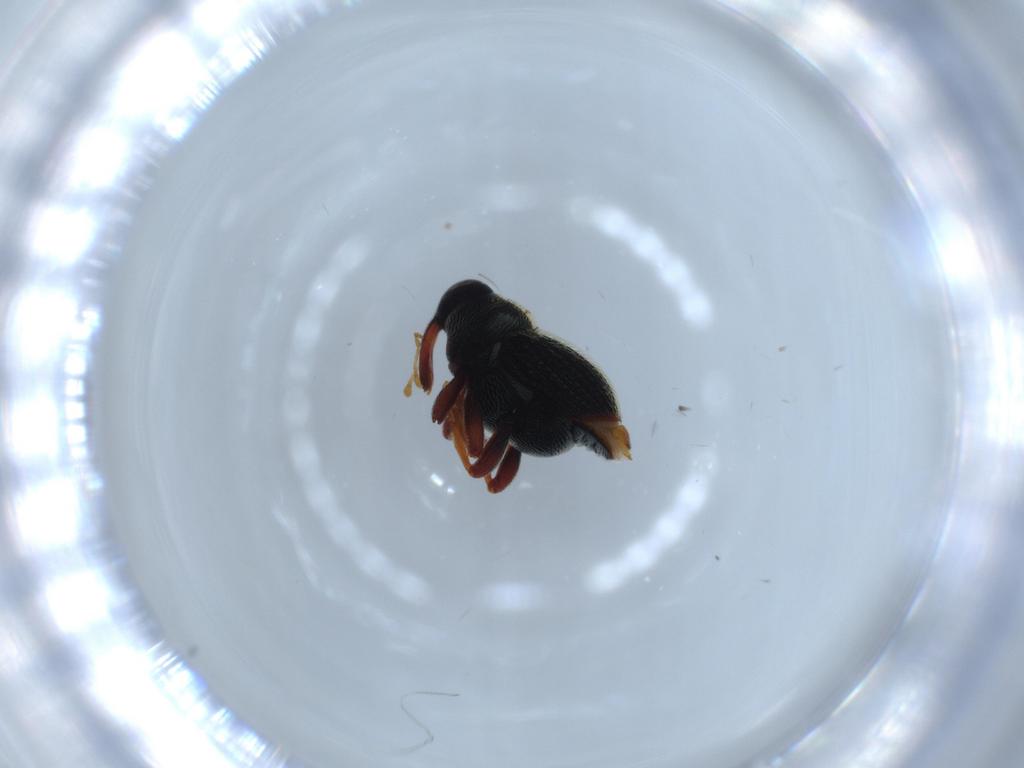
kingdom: Animalia
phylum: Arthropoda
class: Insecta
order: Coleoptera
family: Curculionidae
